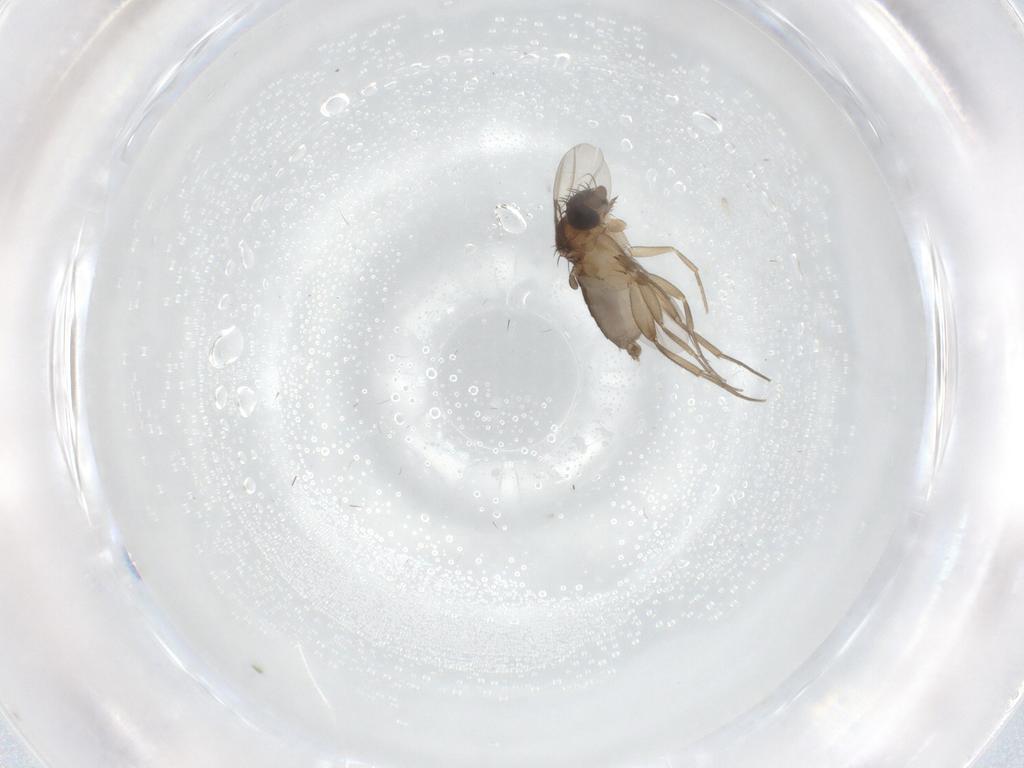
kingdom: Animalia
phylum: Arthropoda
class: Insecta
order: Diptera
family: Phoridae
